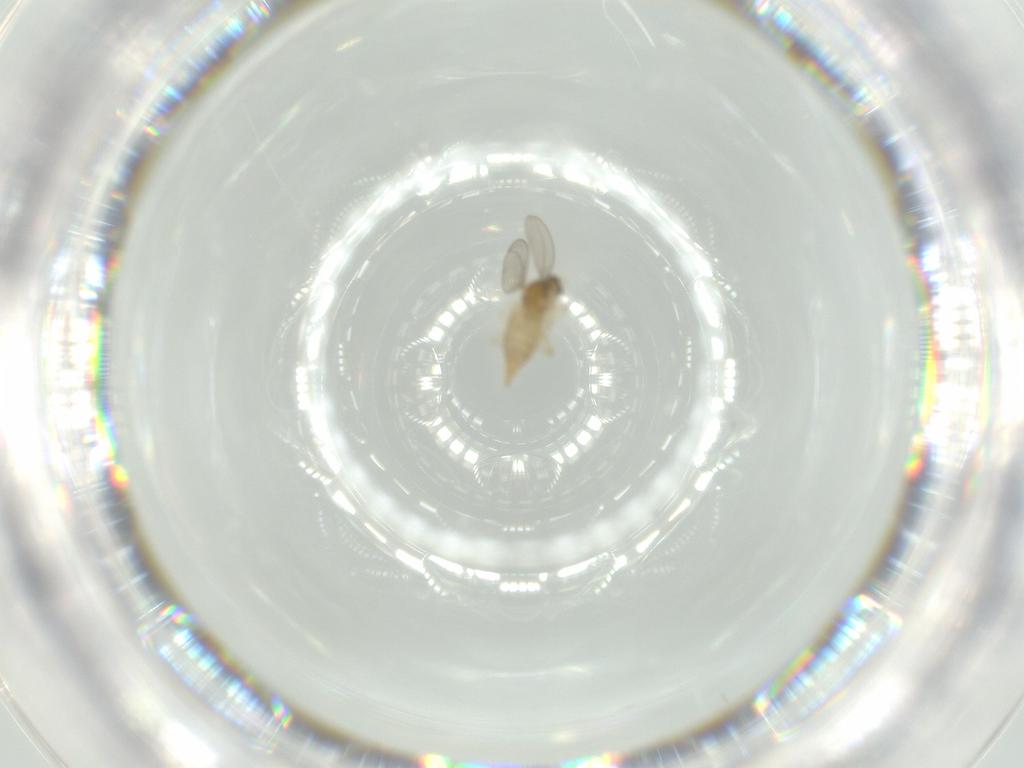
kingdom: Animalia
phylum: Arthropoda
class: Insecta
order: Diptera
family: Cecidomyiidae
